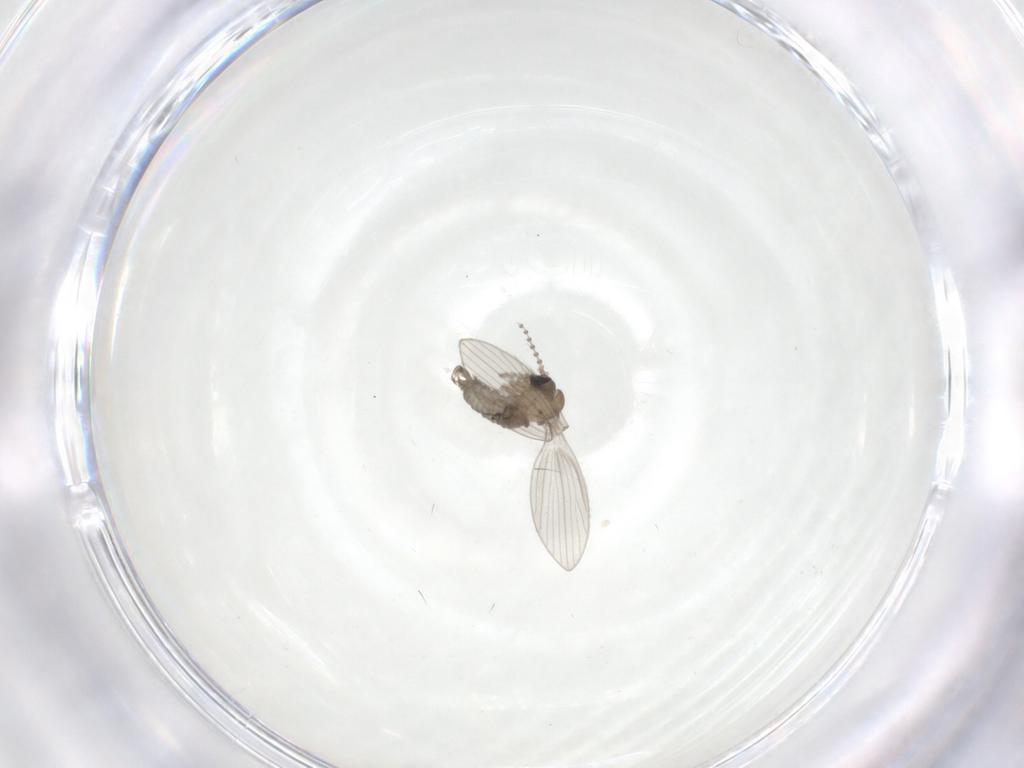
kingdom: Animalia
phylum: Arthropoda
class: Insecta
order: Diptera
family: Psychodidae
